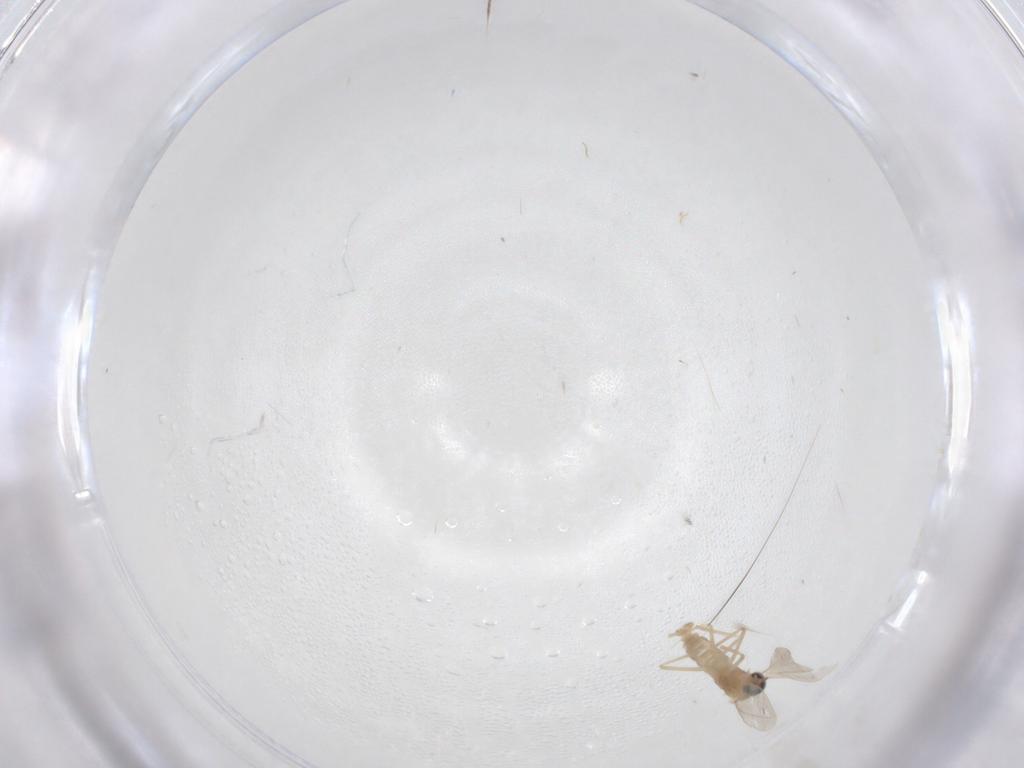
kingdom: Animalia
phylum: Arthropoda
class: Insecta
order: Diptera
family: Cecidomyiidae
